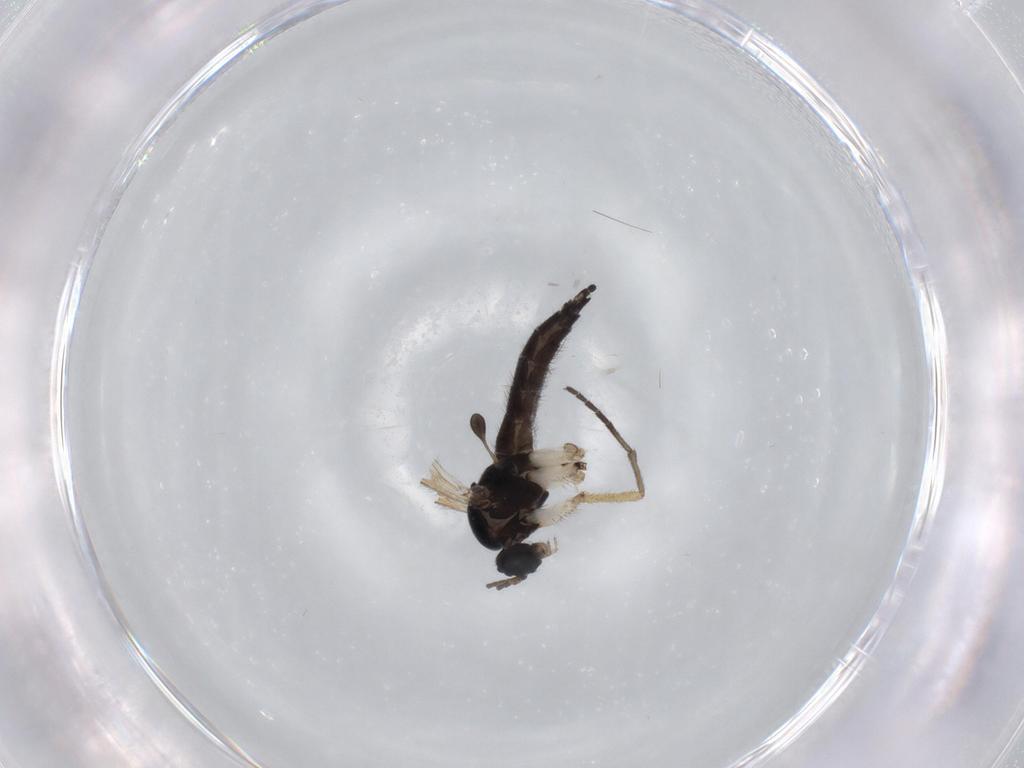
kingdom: Animalia
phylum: Arthropoda
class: Insecta
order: Diptera
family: Sciaridae
